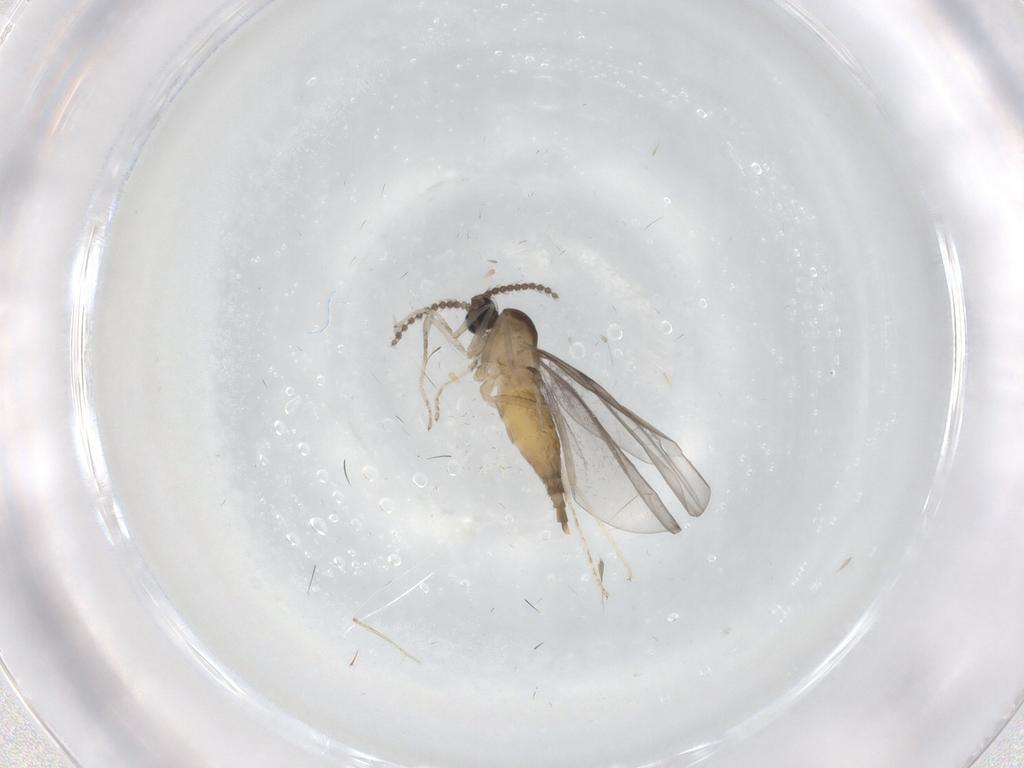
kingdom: Animalia
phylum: Arthropoda
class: Insecta
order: Diptera
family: Cecidomyiidae
